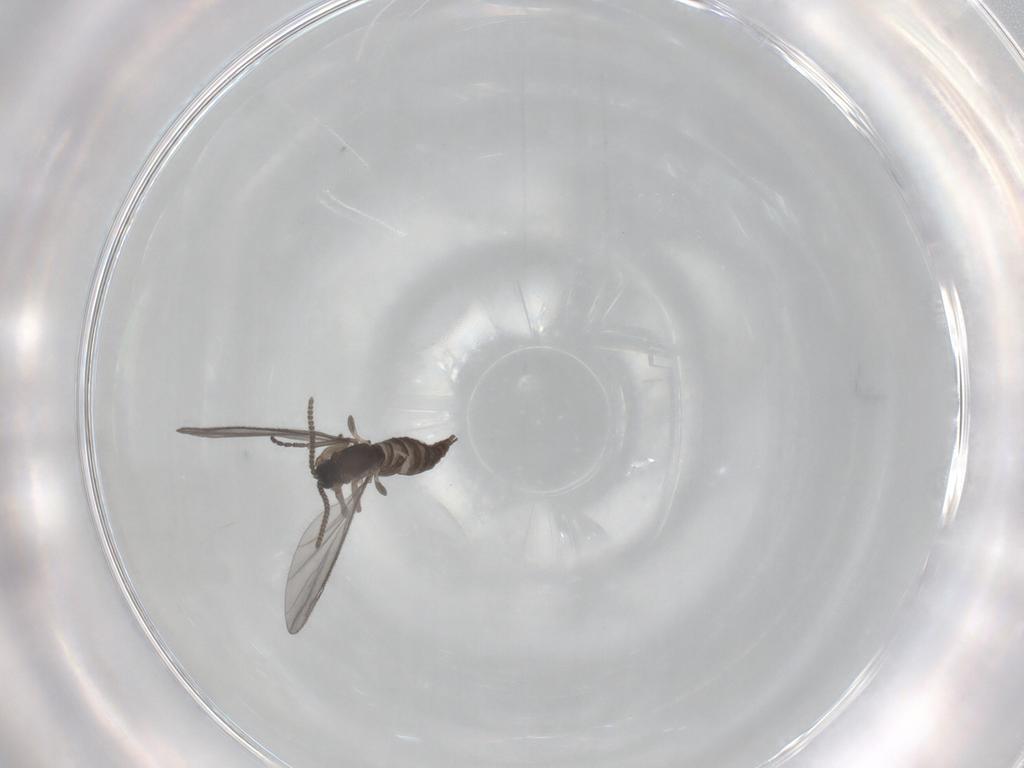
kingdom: Animalia
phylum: Arthropoda
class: Insecta
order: Diptera
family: Sciaridae
